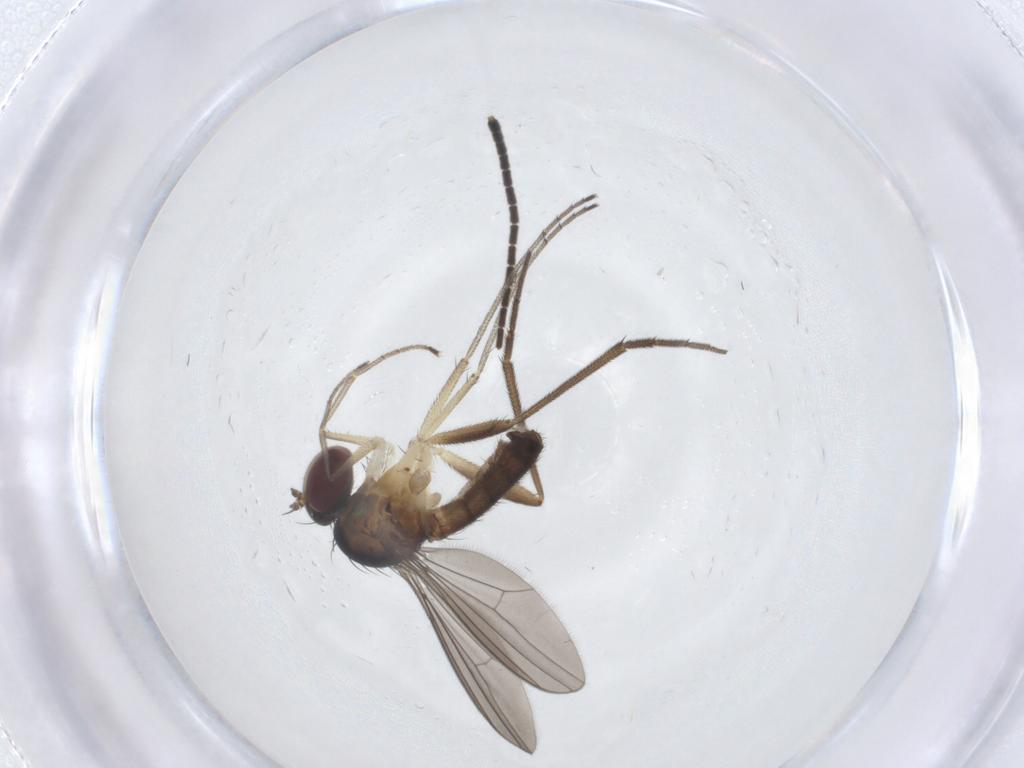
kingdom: Animalia
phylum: Arthropoda
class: Insecta
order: Diptera
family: Dolichopodidae
